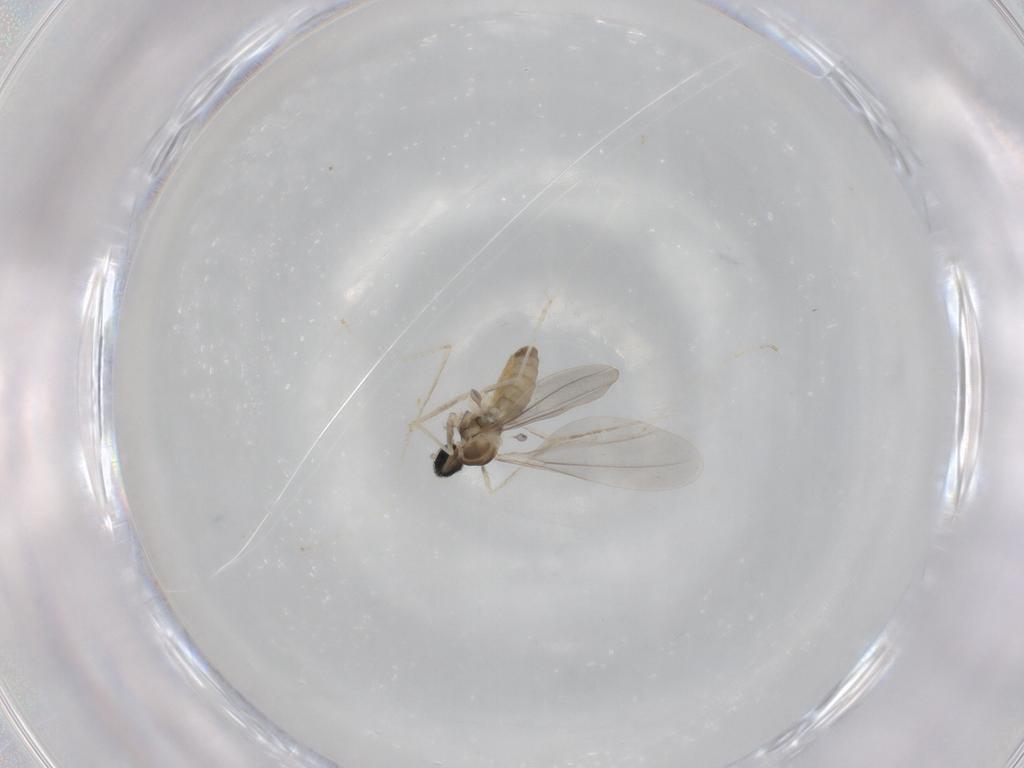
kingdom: Animalia
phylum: Arthropoda
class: Insecta
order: Diptera
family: Cecidomyiidae
